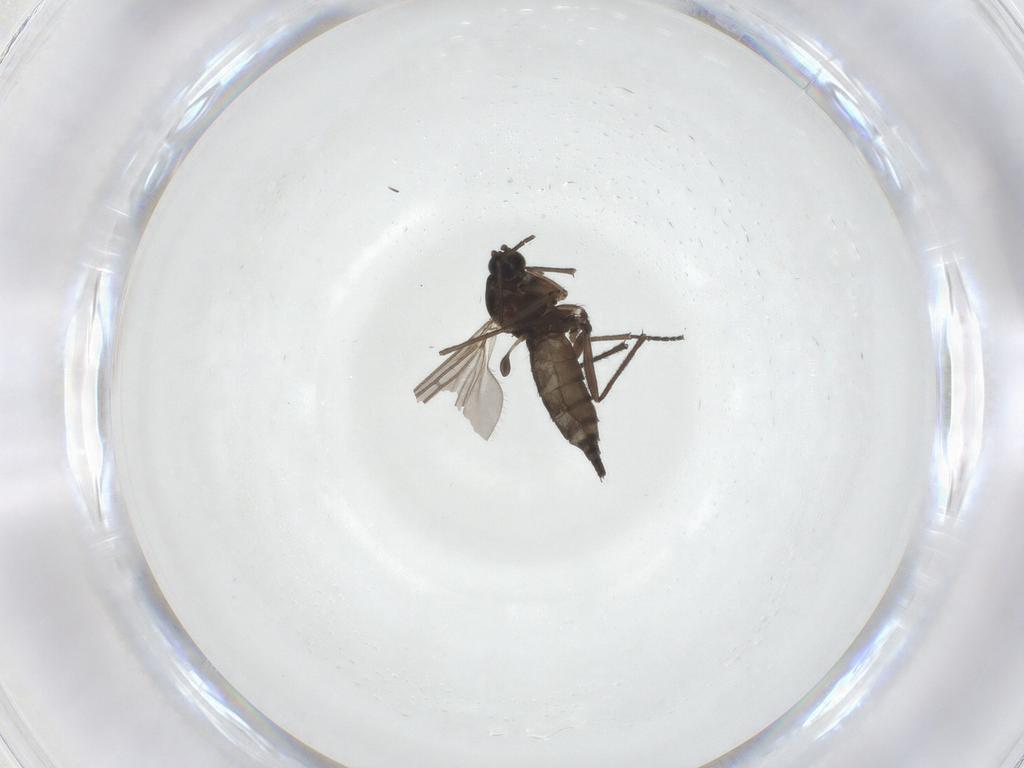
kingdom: Animalia
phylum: Arthropoda
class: Insecta
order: Diptera
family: Sciaridae
